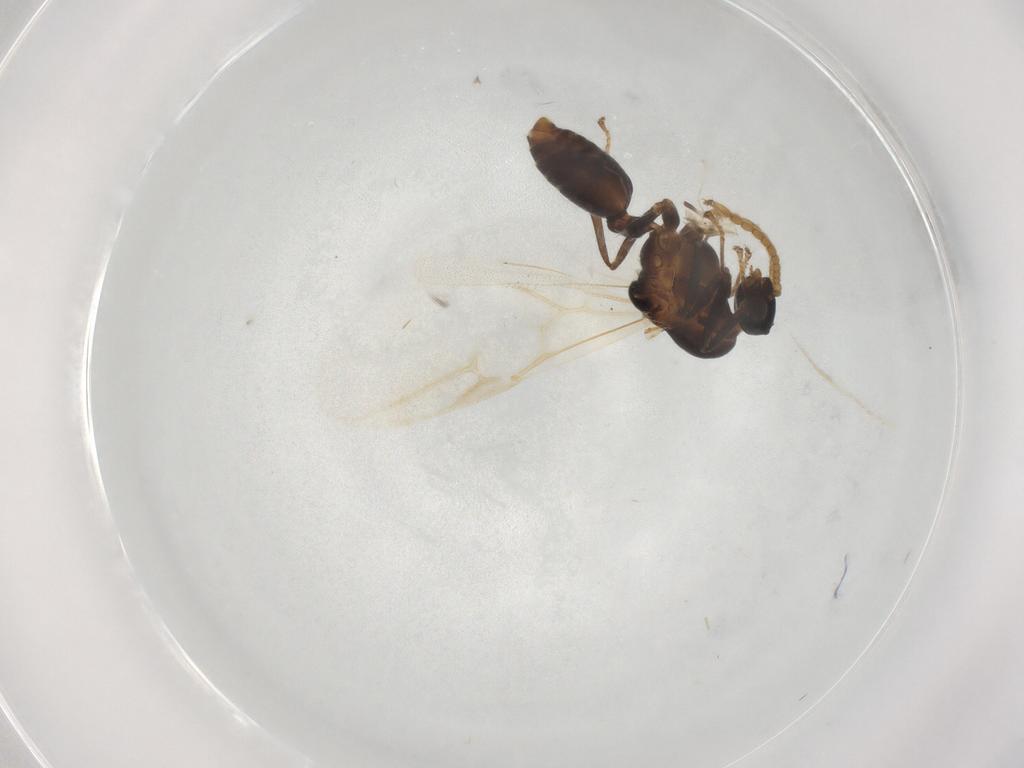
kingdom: Animalia
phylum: Arthropoda
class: Insecta
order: Hymenoptera
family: Formicidae
